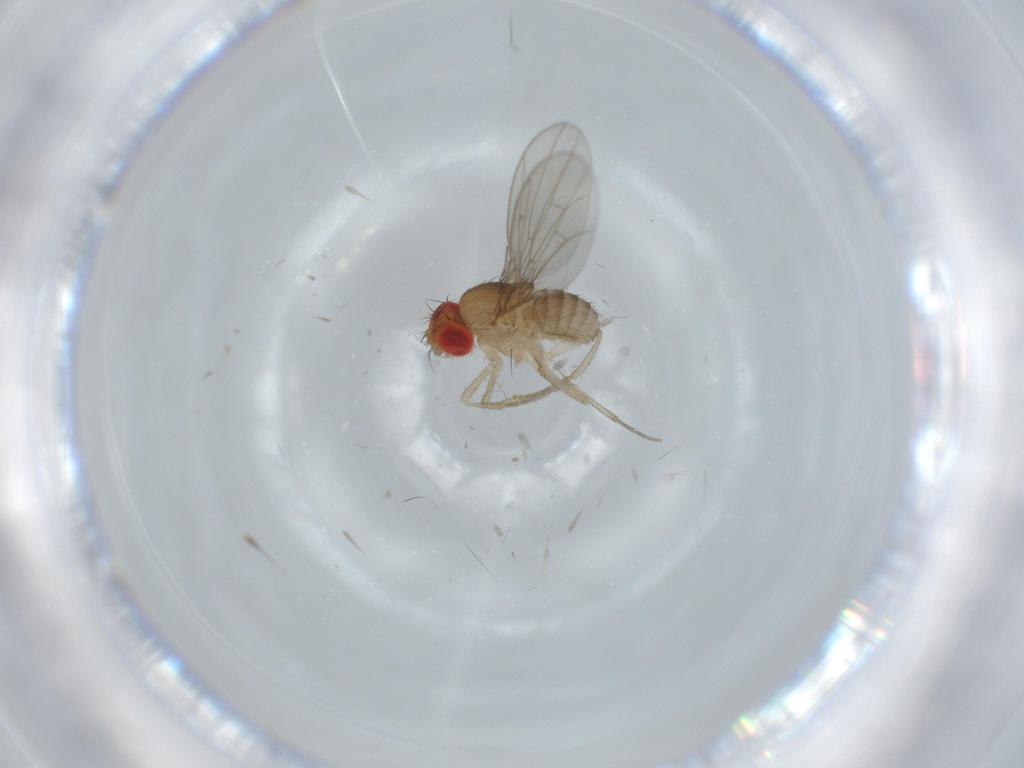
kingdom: Animalia
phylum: Arthropoda
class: Insecta
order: Diptera
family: Drosophilidae
